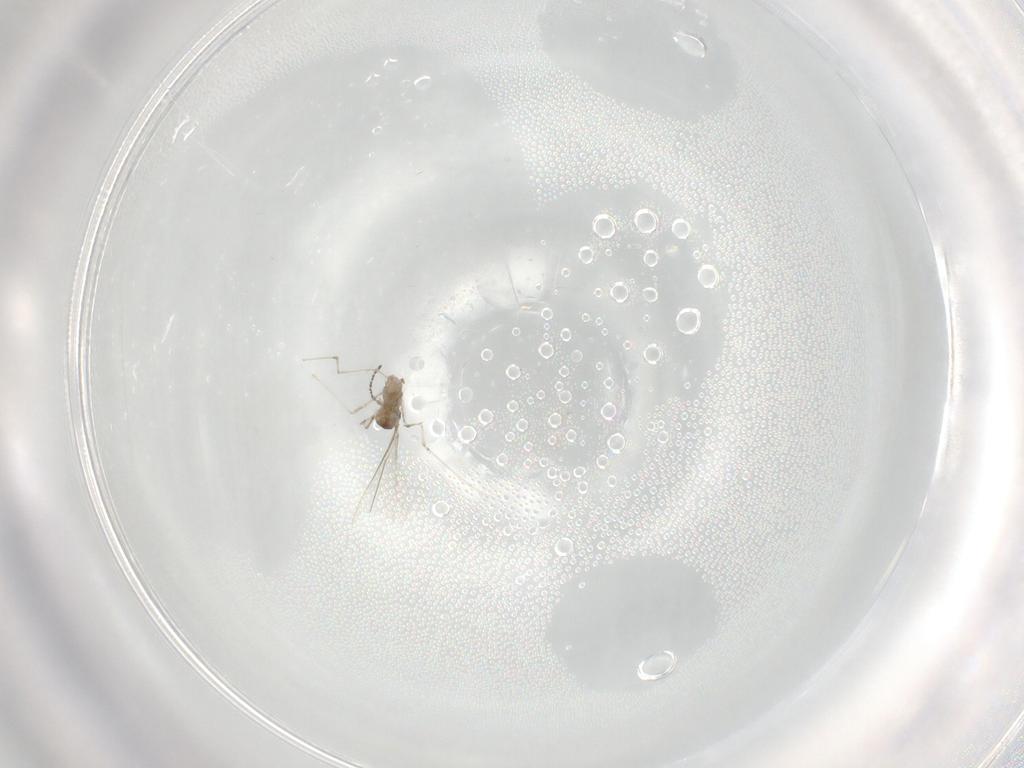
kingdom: Animalia
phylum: Arthropoda
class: Insecta
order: Diptera
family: Cecidomyiidae
